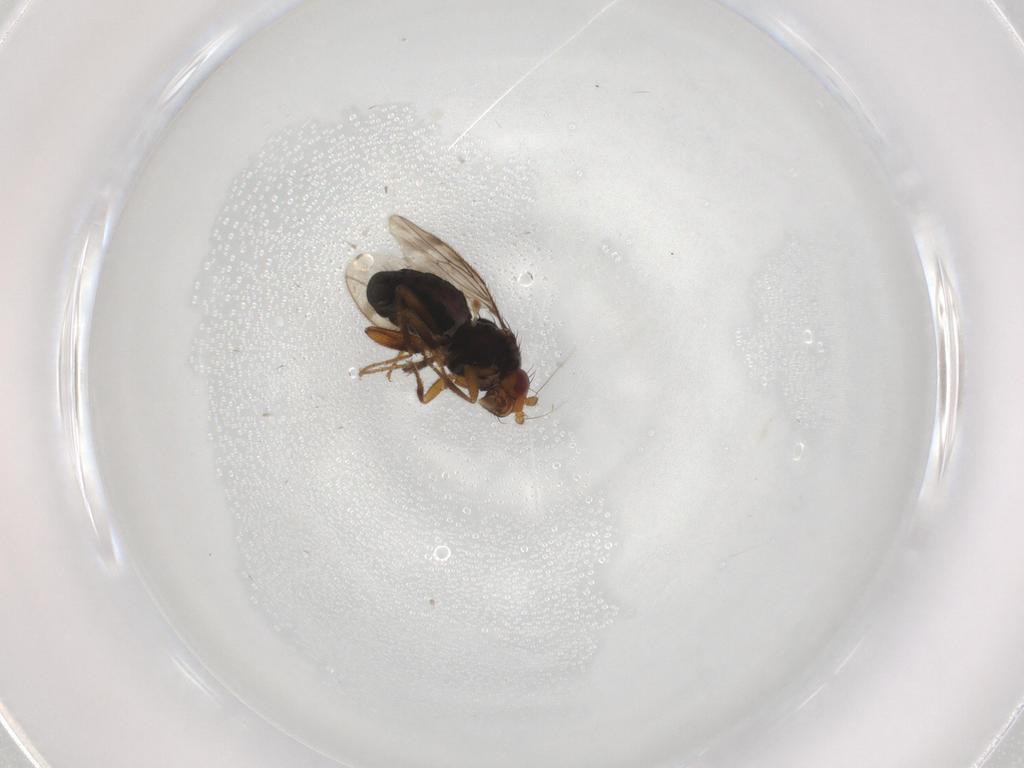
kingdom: Animalia
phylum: Arthropoda
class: Insecta
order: Diptera
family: Sphaeroceridae
